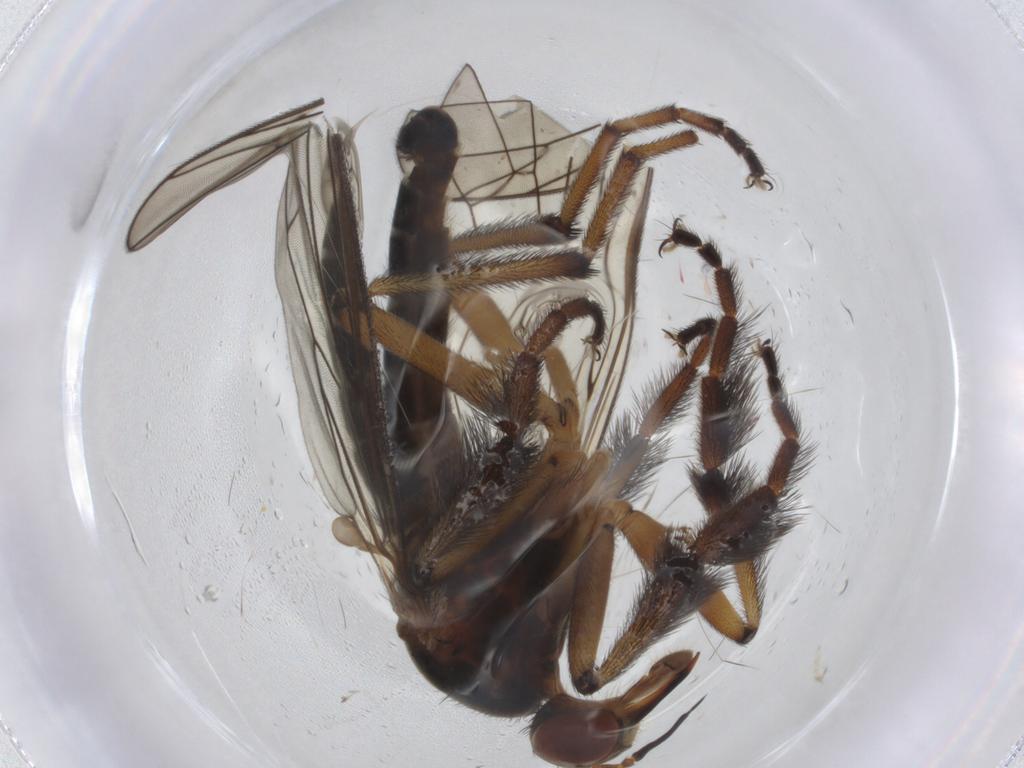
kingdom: Animalia
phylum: Arthropoda
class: Insecta
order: Diptera
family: Empididae
